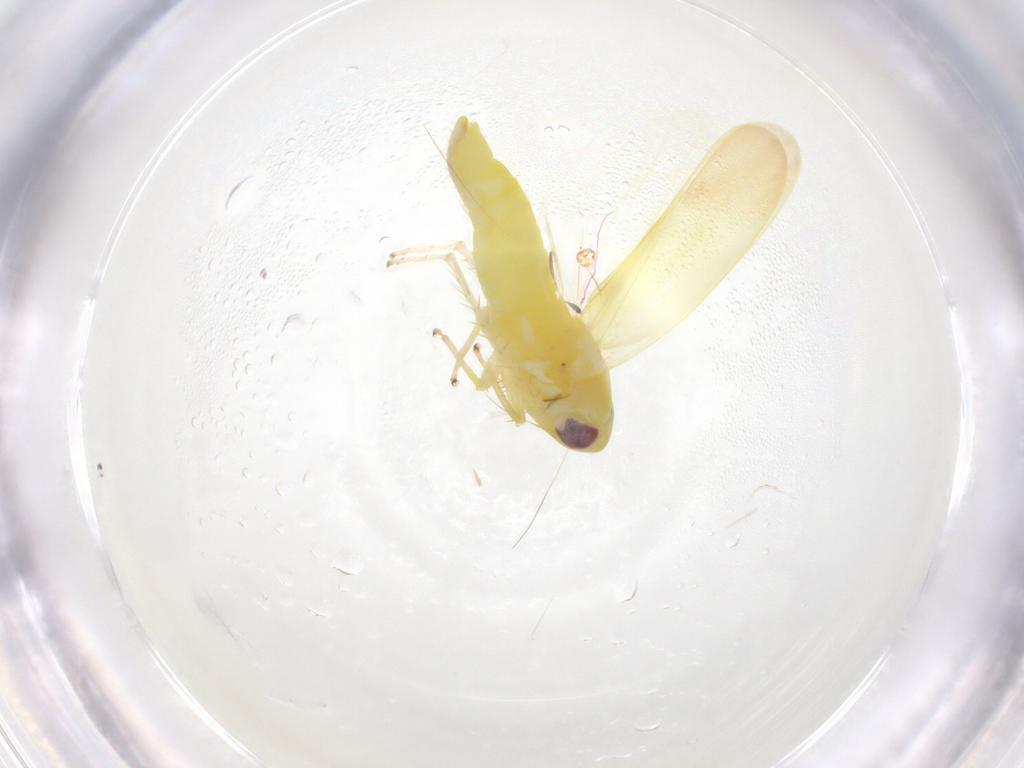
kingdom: Animalia
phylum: Arthropoda
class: Insecta
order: Hemiptera
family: Cicadellidae
